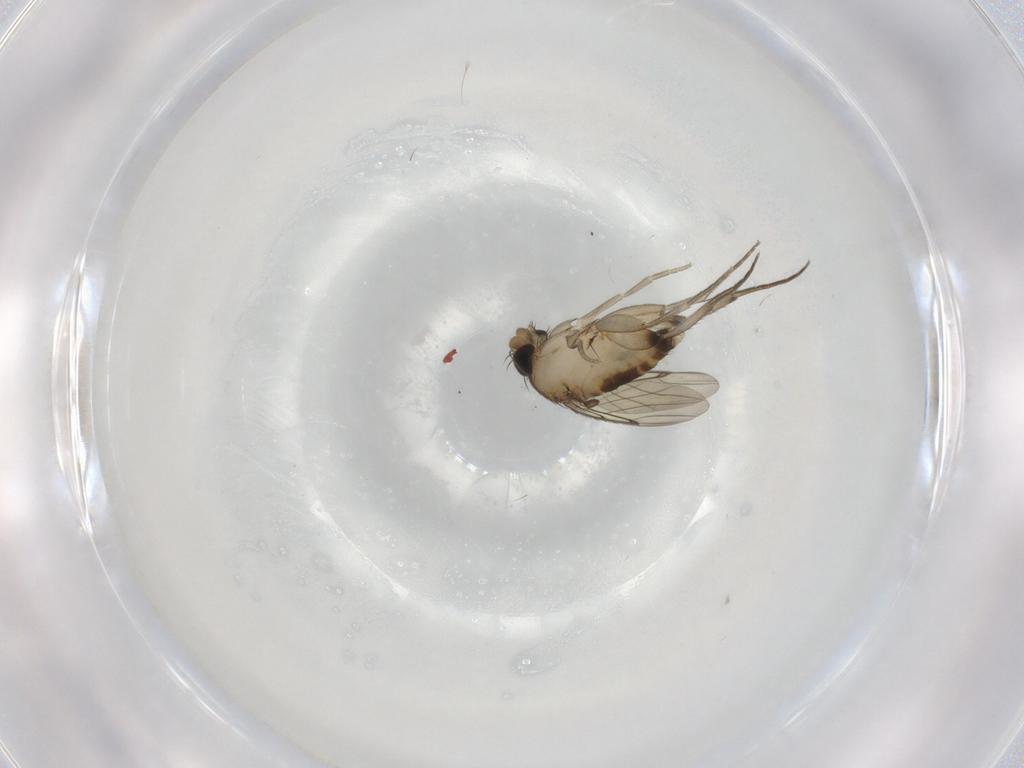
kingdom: Animalia
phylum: Arthropoda
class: Insecta
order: Diptera
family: Phoridae
